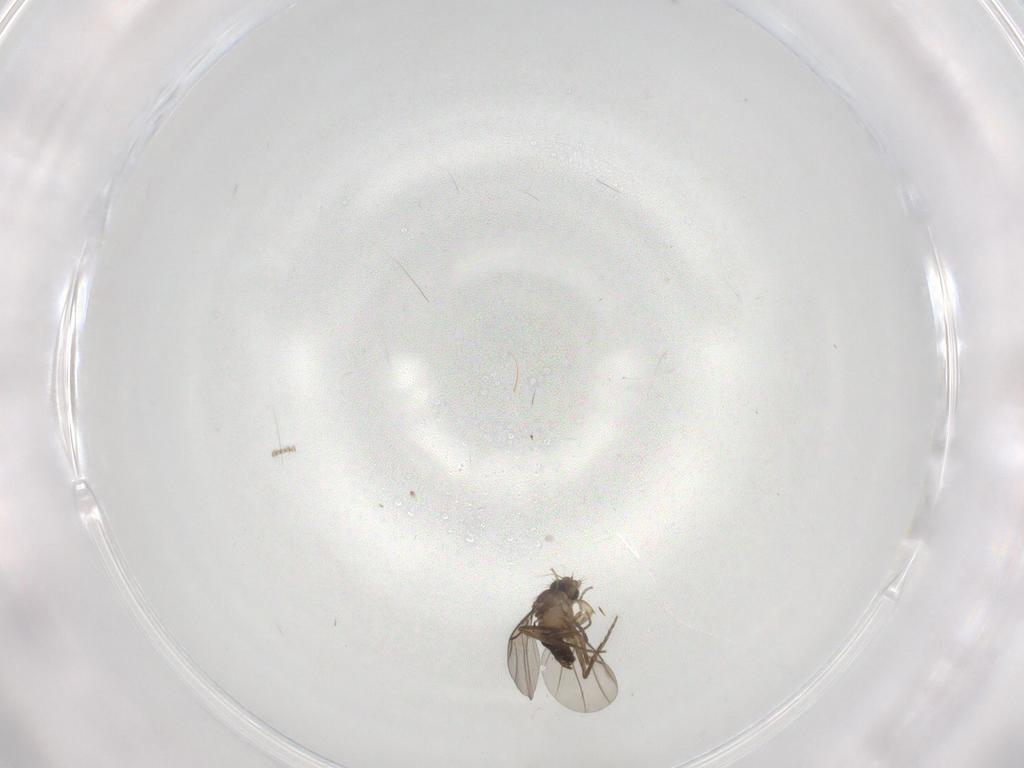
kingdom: Animalia
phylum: Arthropoda
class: Insecta
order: Diptera
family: Phoridae
